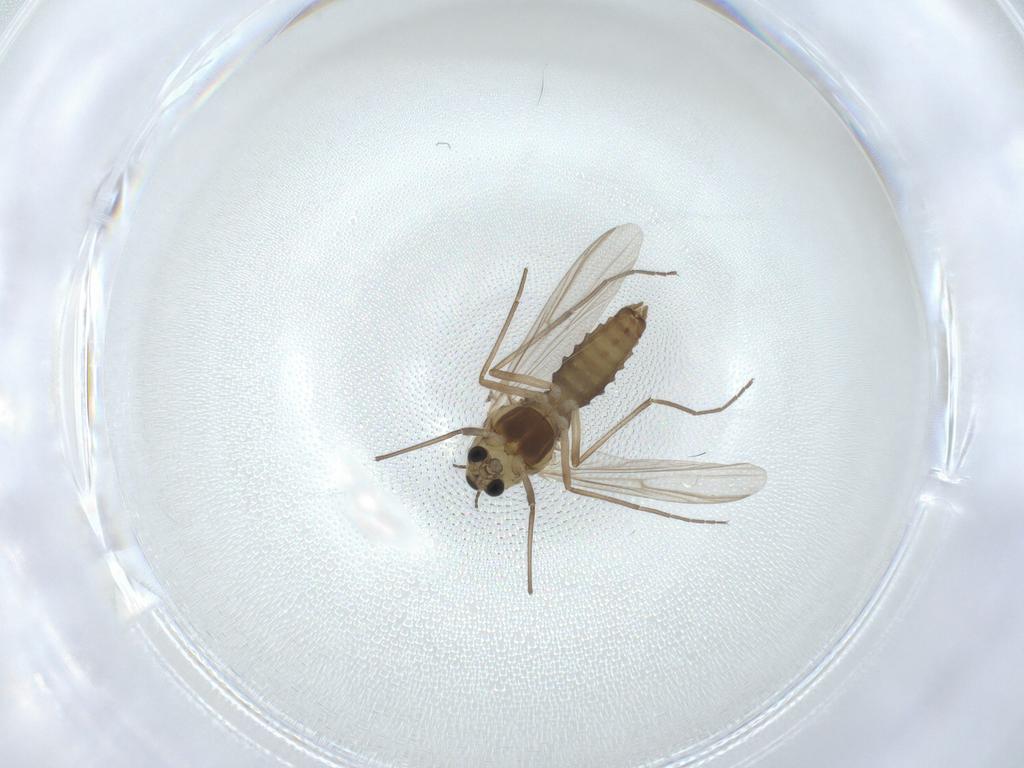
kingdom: Animalia
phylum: Arthropoda
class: Insecta
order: Diptera
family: Chironomidae
